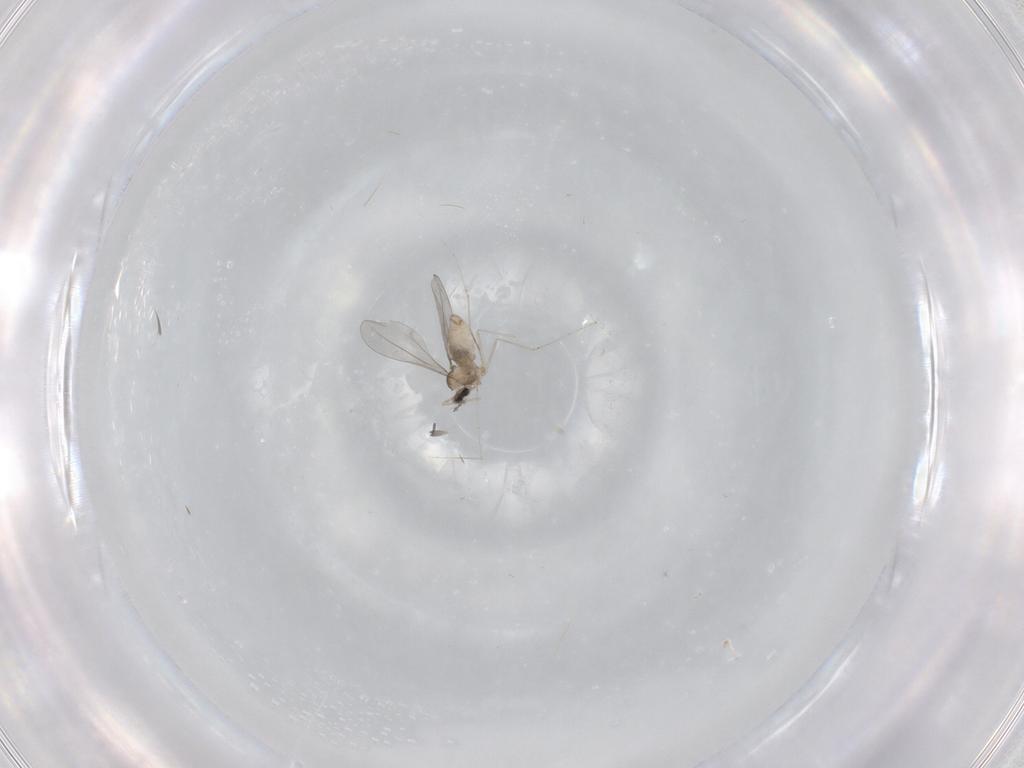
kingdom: Animalia
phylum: Arthropoda
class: Insecta
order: Diptera
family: Cecidomyiidae
